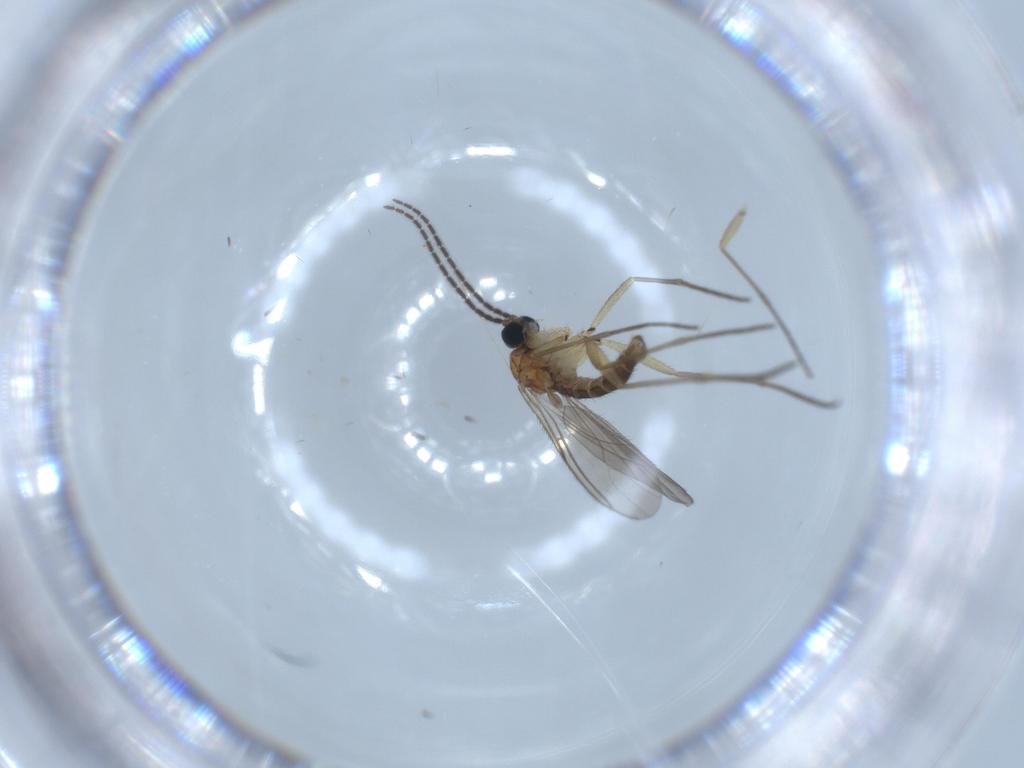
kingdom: Animalia
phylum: Arthropoda
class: Insecta
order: Diptera
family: Sciaridae
